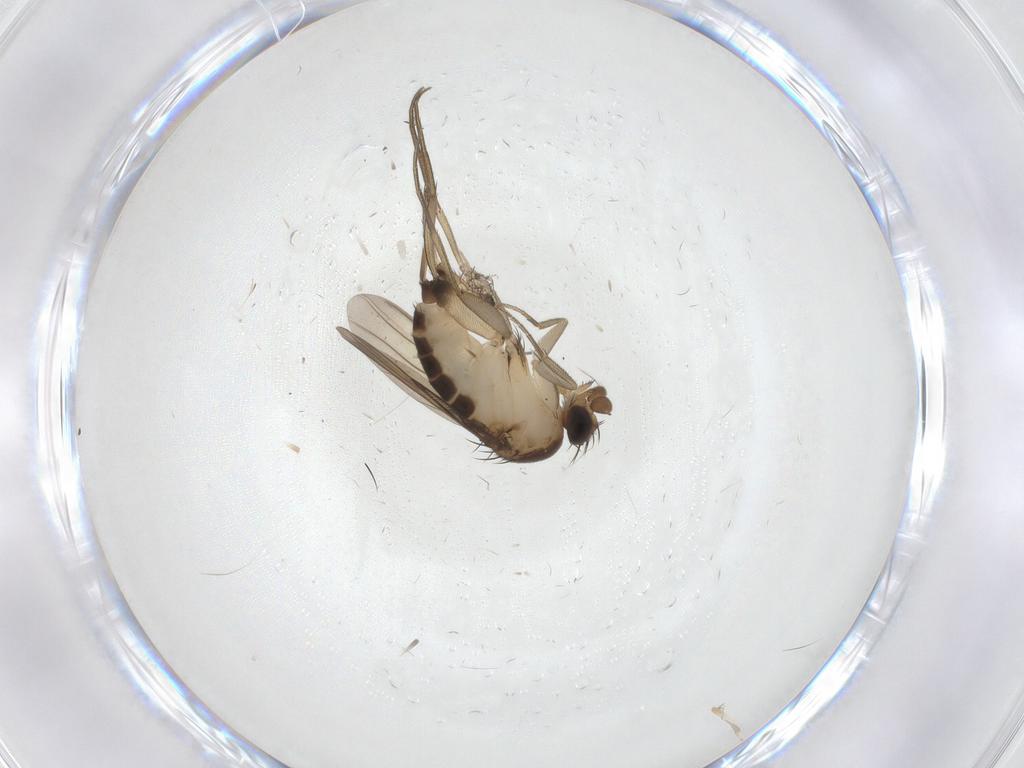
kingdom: Animalia
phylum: Arthropoda
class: Insecta
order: Diptera
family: Phoridae
